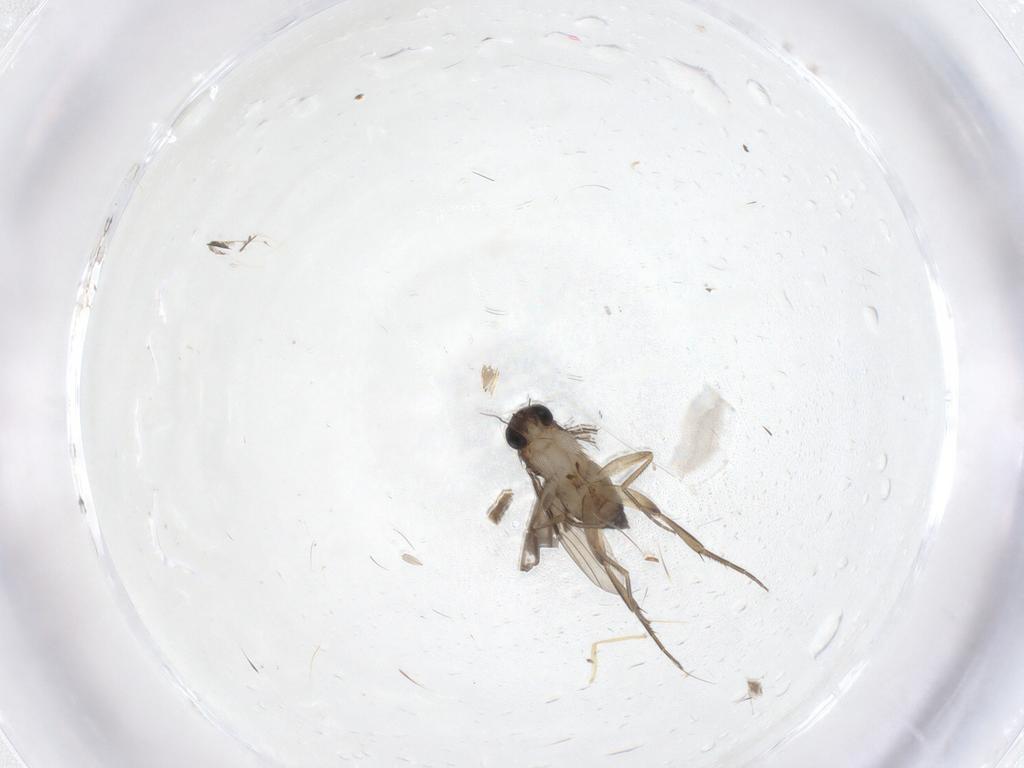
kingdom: Animalia
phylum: Arthropoda
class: Insecta
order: Diptera
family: Phoridae
